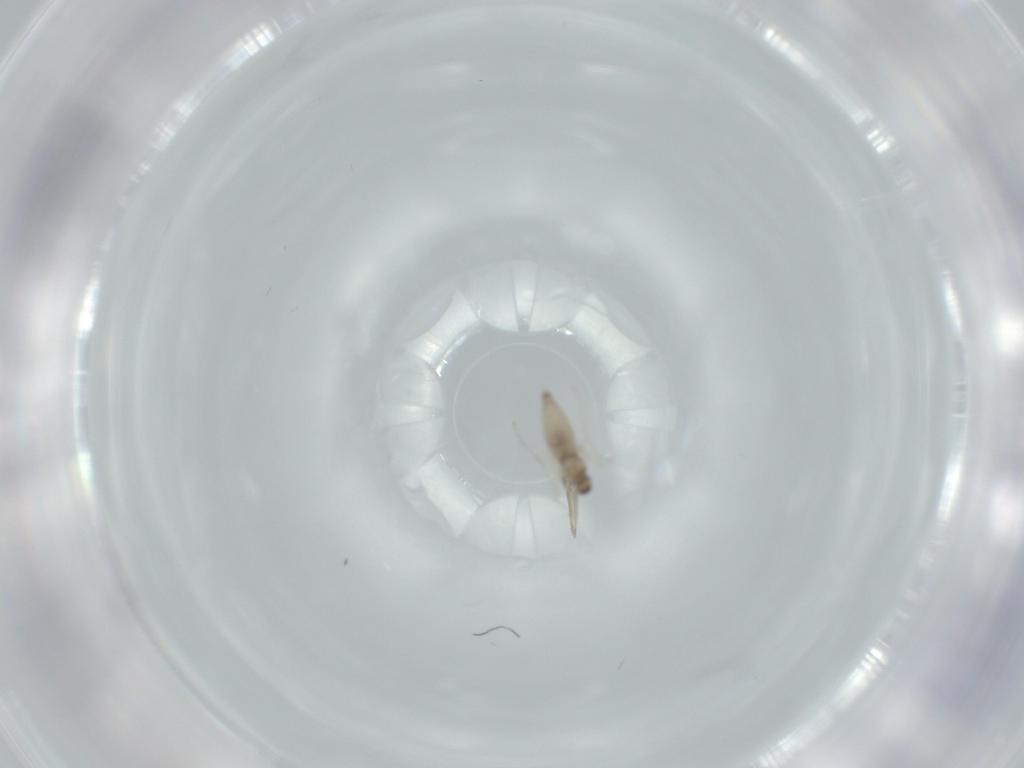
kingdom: Animalia
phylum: Arthropoda
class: Insecta
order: Diptera
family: Cecidomyiidae
